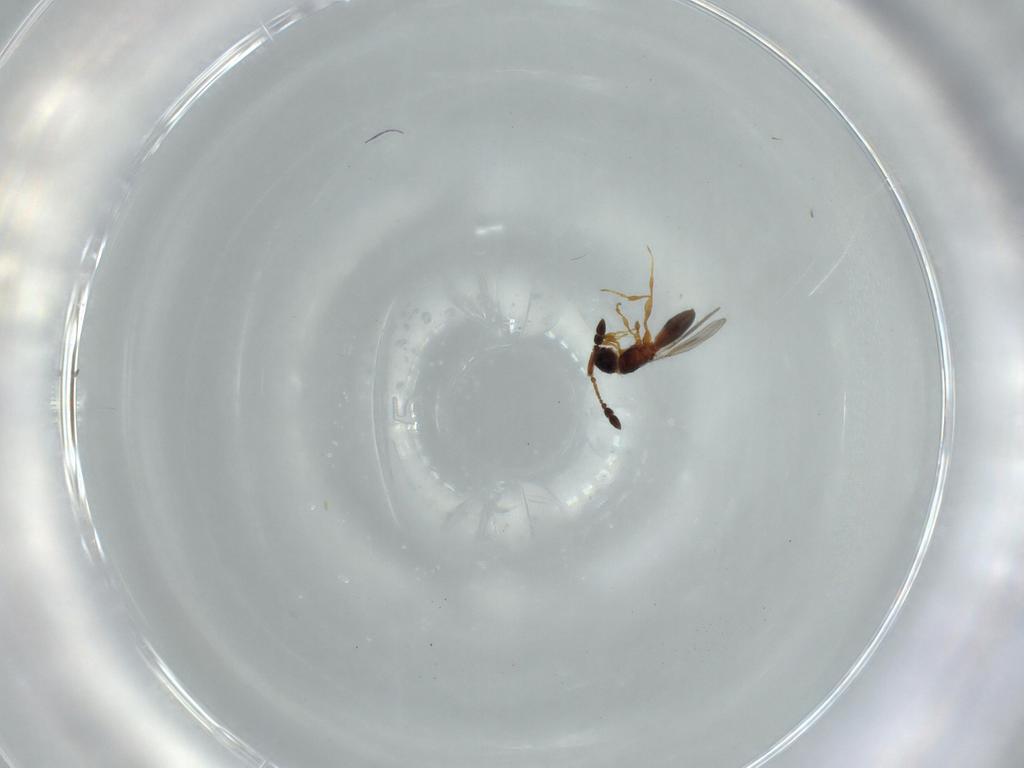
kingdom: Animalia
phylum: Arthropoda
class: Insecta
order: Hymenoptera
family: Diapriidae
